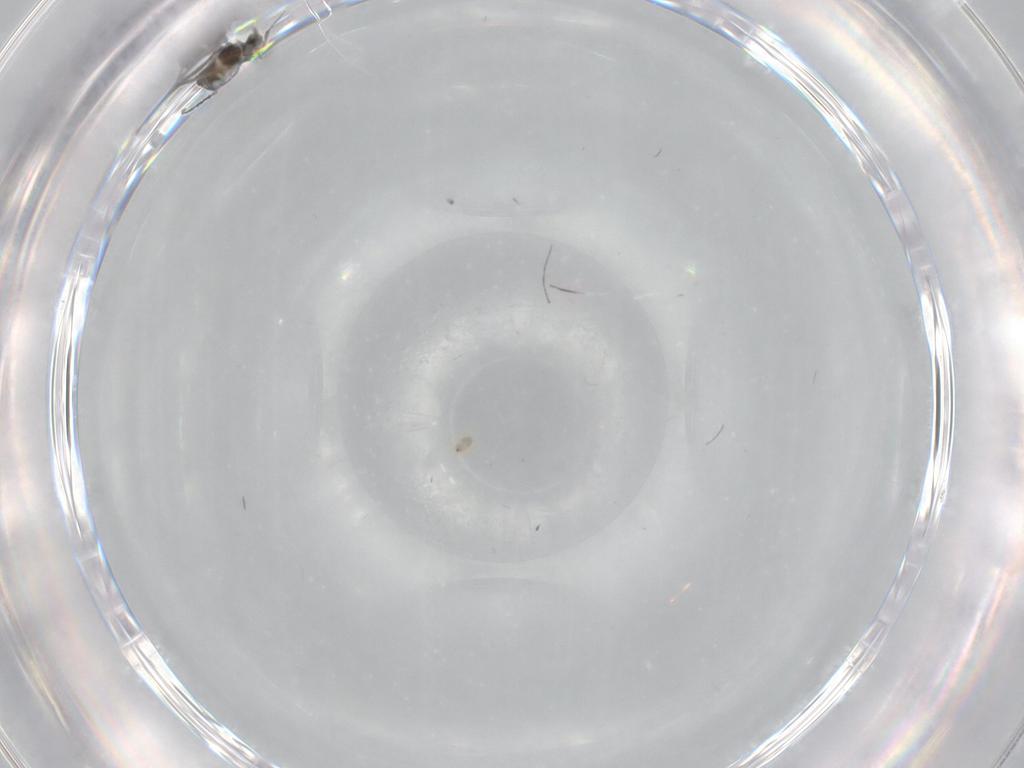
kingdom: Animalia
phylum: Arthropoda
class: Insecta
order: Diptera
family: Cecidomyiidae
